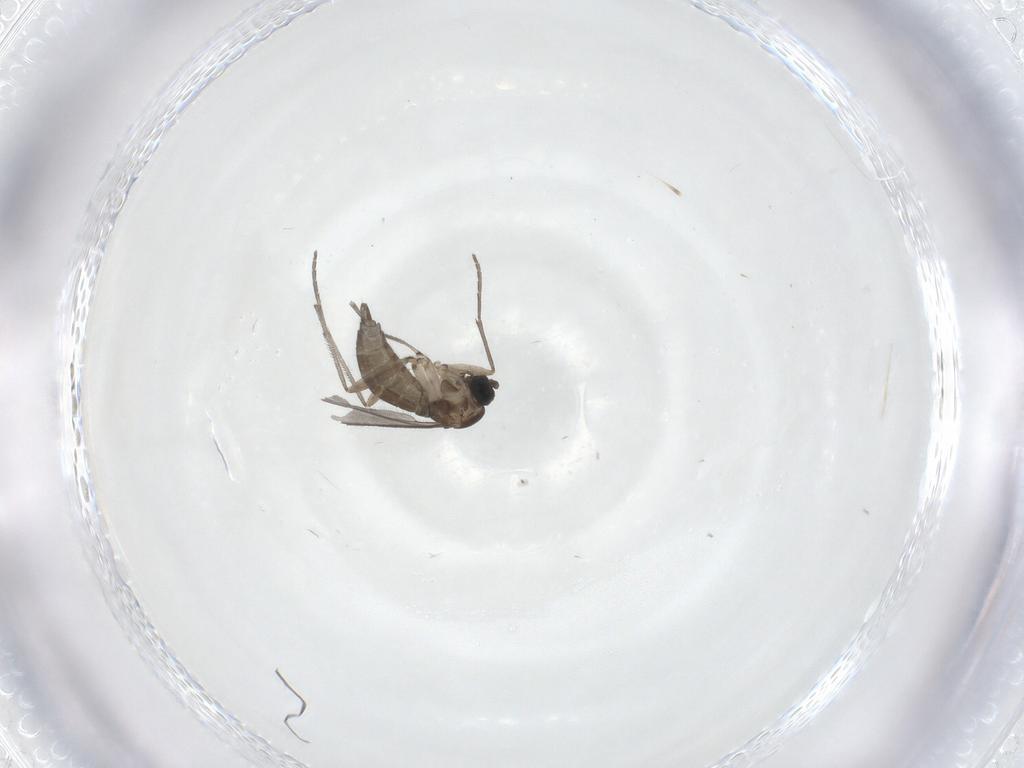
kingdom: Animalia
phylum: Arthropoda
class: Insecta
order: Diptera
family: Sciaridae
